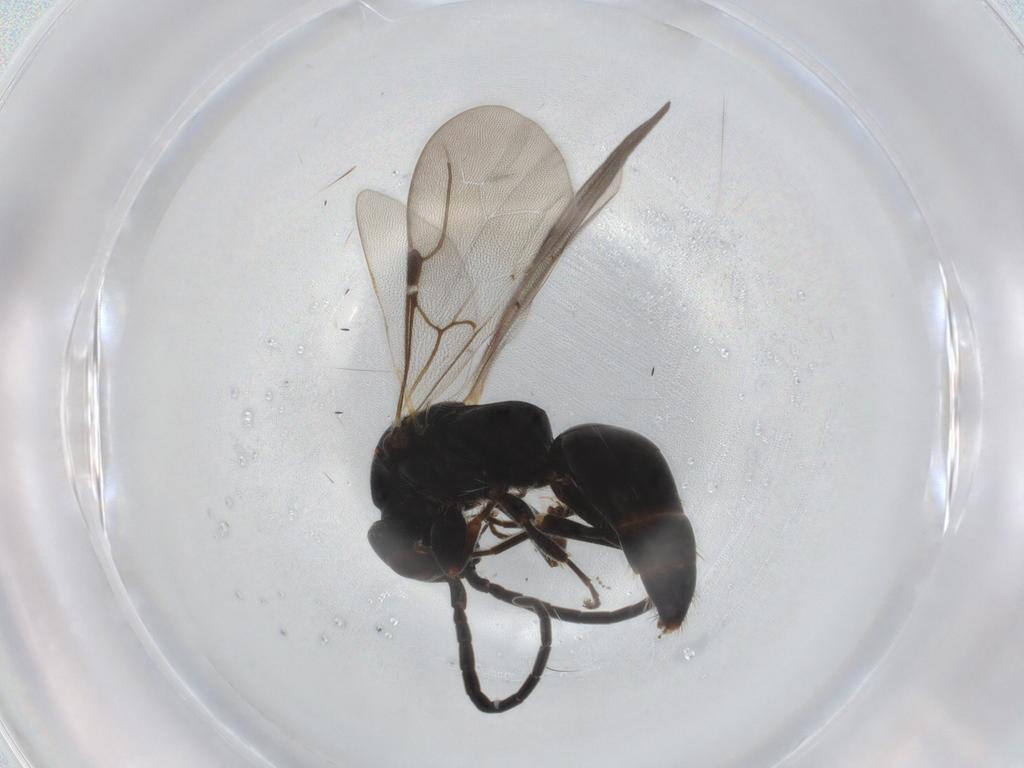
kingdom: Animalia
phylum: Arthropoda
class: Insecta
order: Hymenoptera
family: Bethylidae
